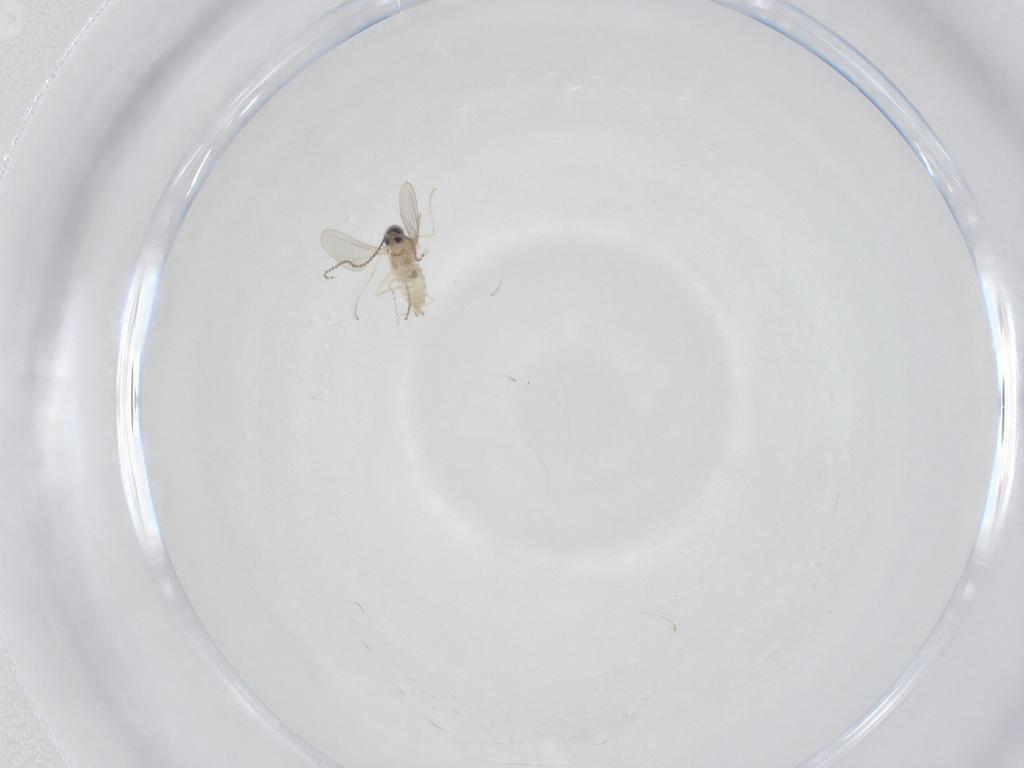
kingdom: Animalia
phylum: Arthropoda
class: Insecta
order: Diptera
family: Cecidomyiidae
